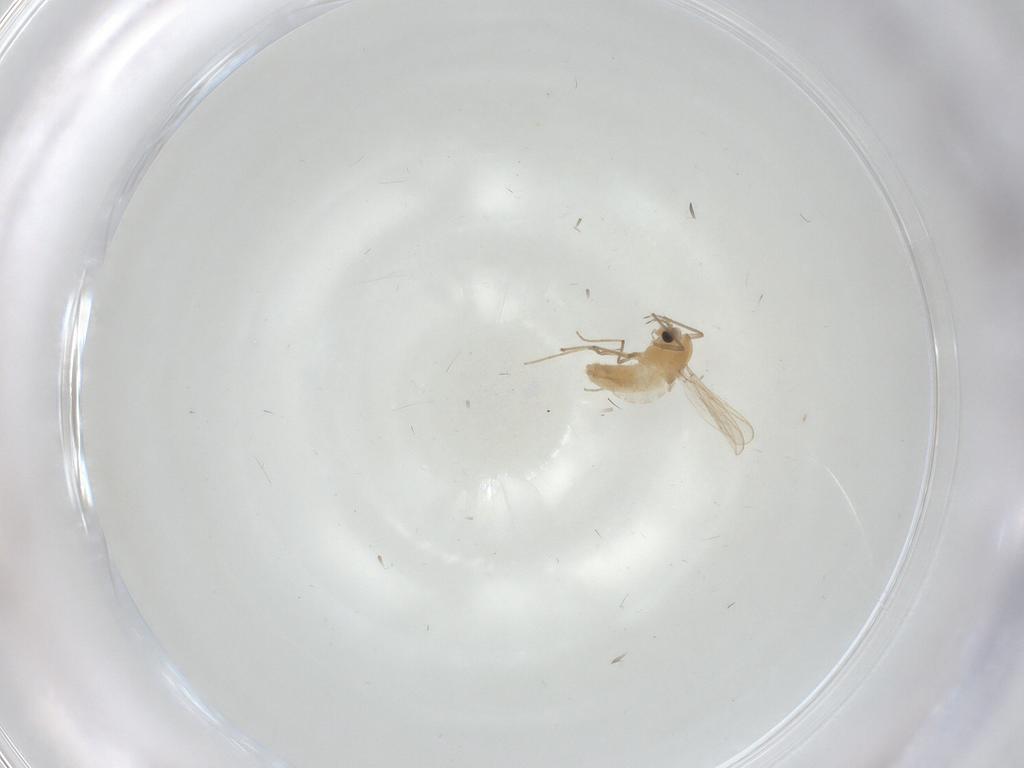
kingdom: Animalia
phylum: Arthropoda
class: Insecta
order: Diptera
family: Chironomidae
